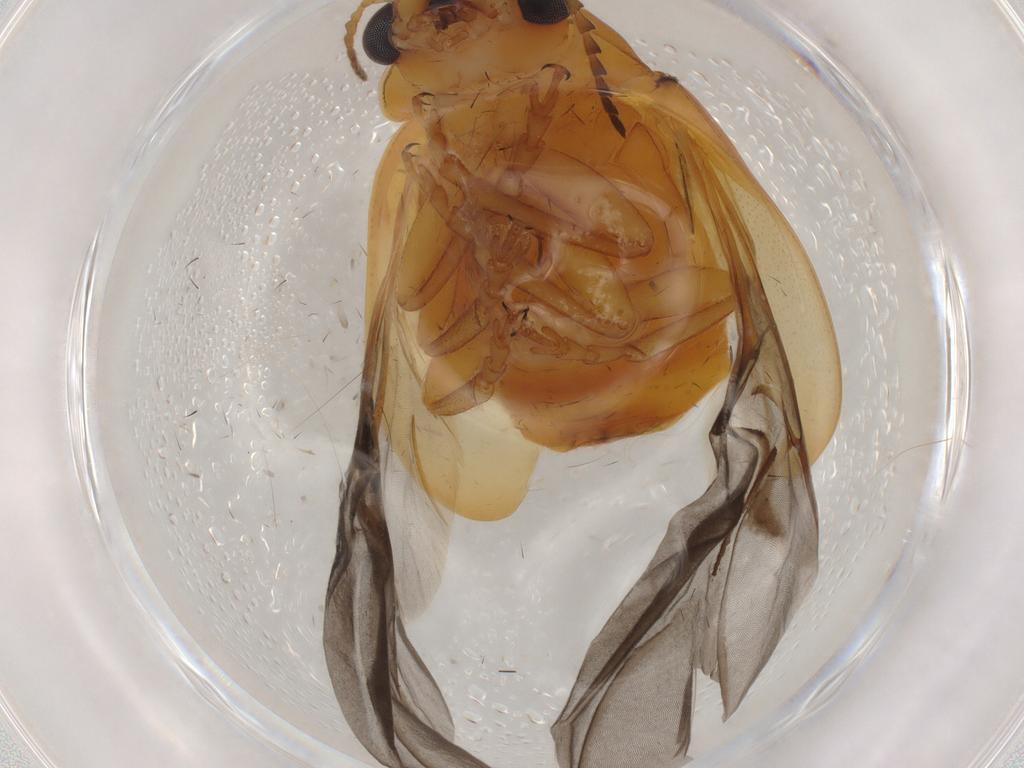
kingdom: Animalia
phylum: Arthropoda
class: Insecta
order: Coleoptera
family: Chrysomelidae
